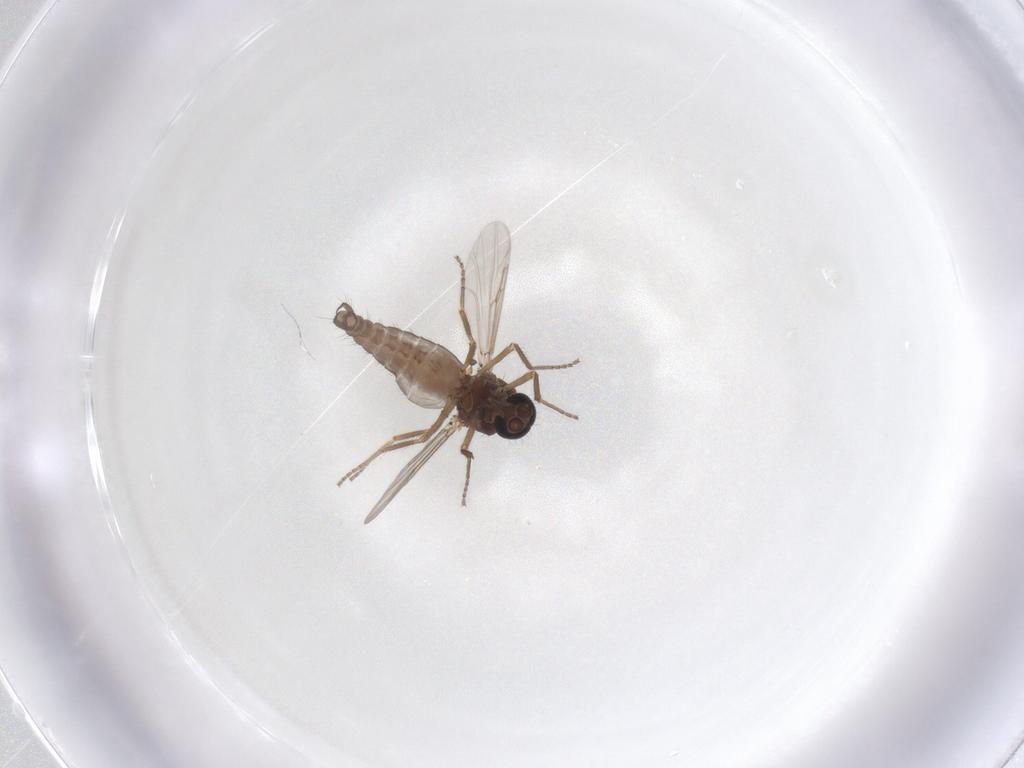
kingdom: Animalia
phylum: Arthropoda
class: Insecta
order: Diptera
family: Ceratopogonidae
